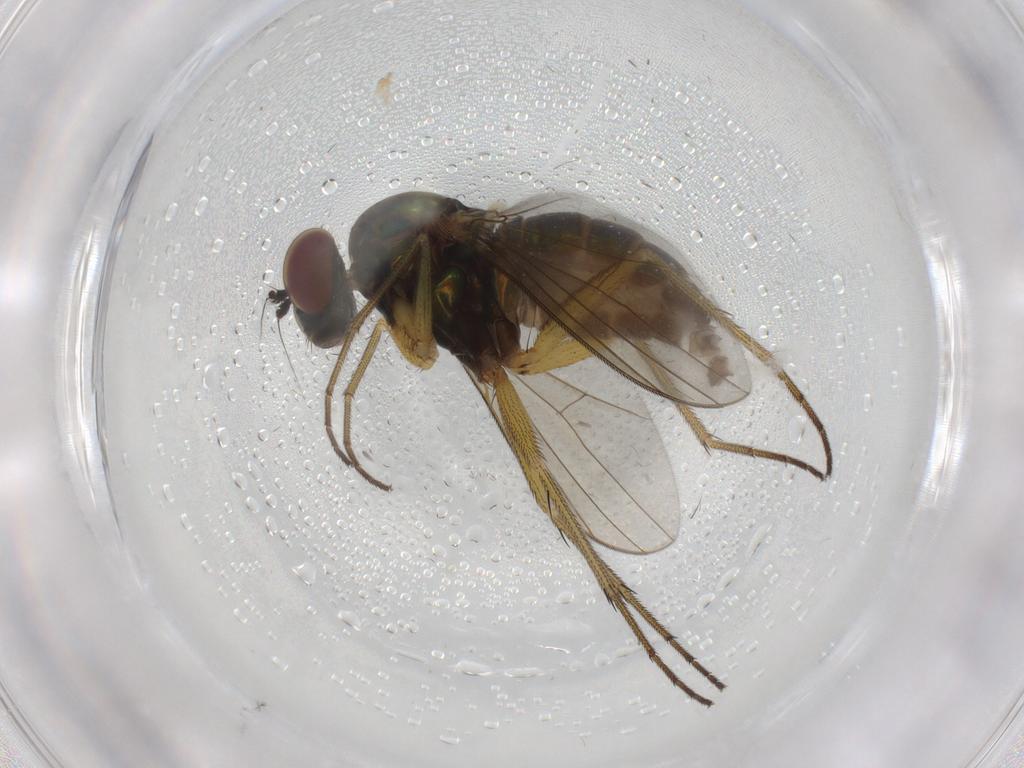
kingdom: Animalia
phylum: Arthropoda
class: Insecta
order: Diptera
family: Dolichopodidae
